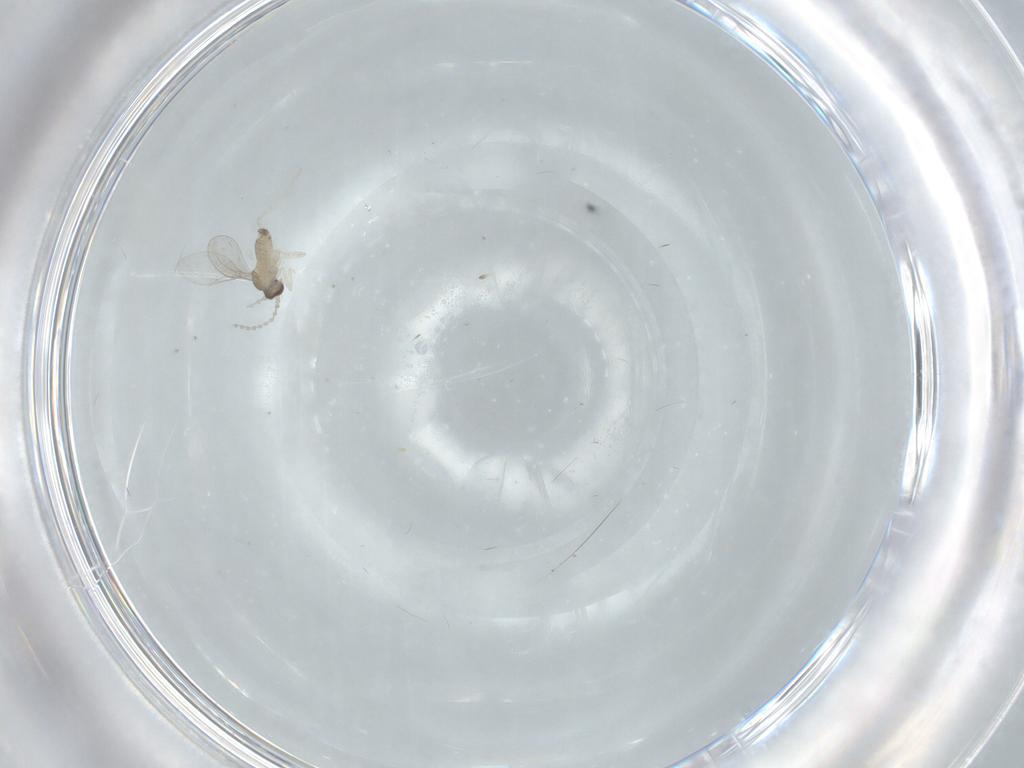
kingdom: Animalia
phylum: Arthropoda
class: Insecta
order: Diptera
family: Cecidomyiidae
